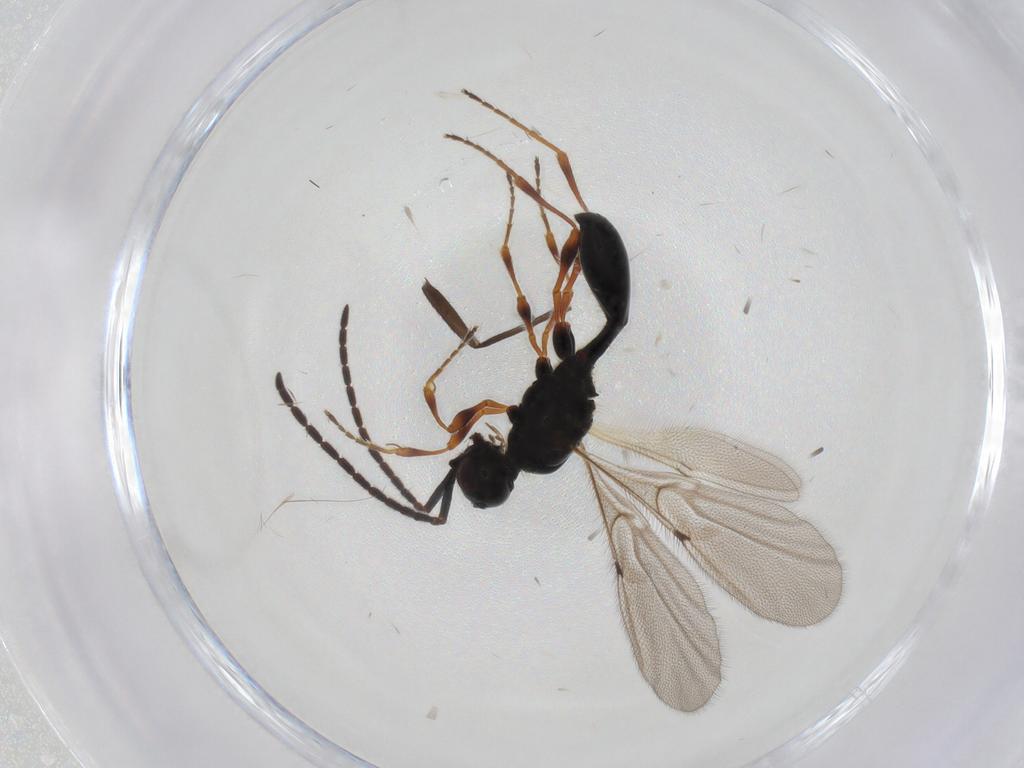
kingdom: Animalia
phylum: Arthropoda
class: Insecta
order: Hymenoptera
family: Diapriidae
